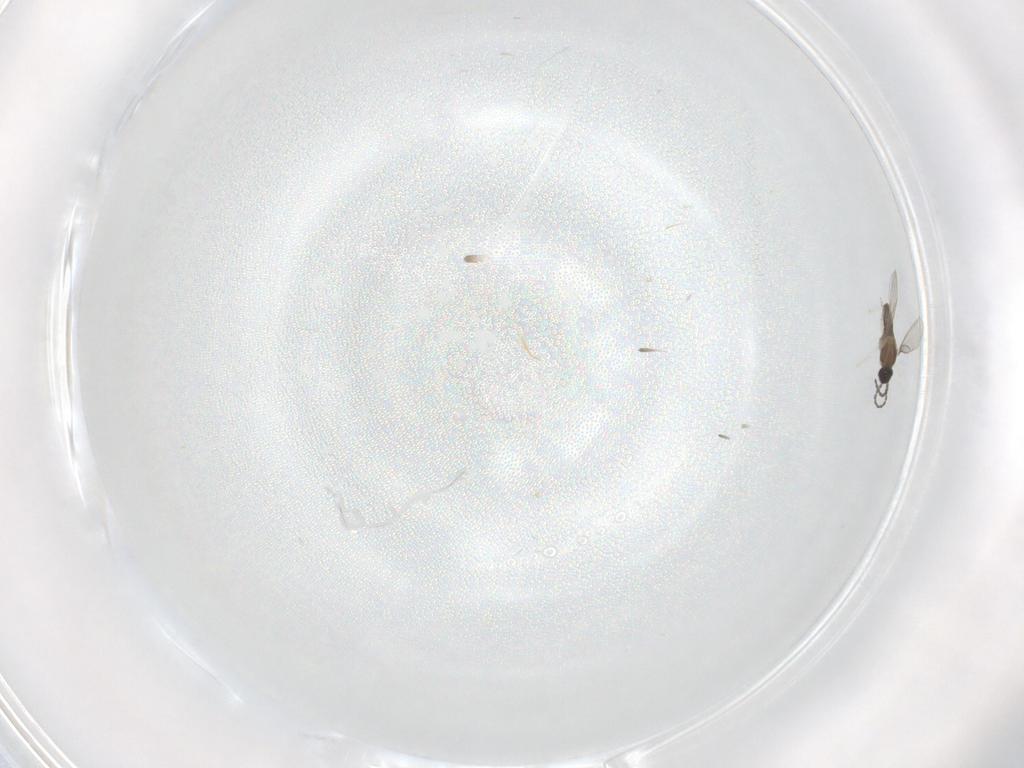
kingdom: Animalia
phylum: Arthropoda
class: Insecta
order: Diptera
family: Cecidomyiidae
